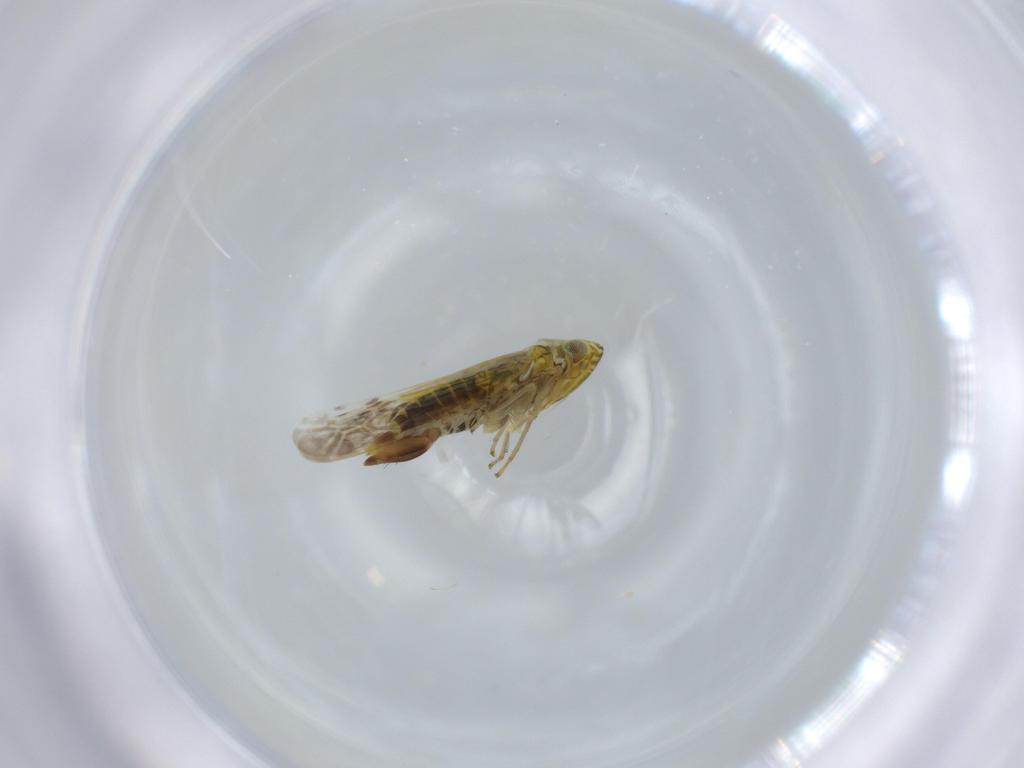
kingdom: Animalia
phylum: Arthropoda
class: Insecta
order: Hemiptera
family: Cicadellidae
